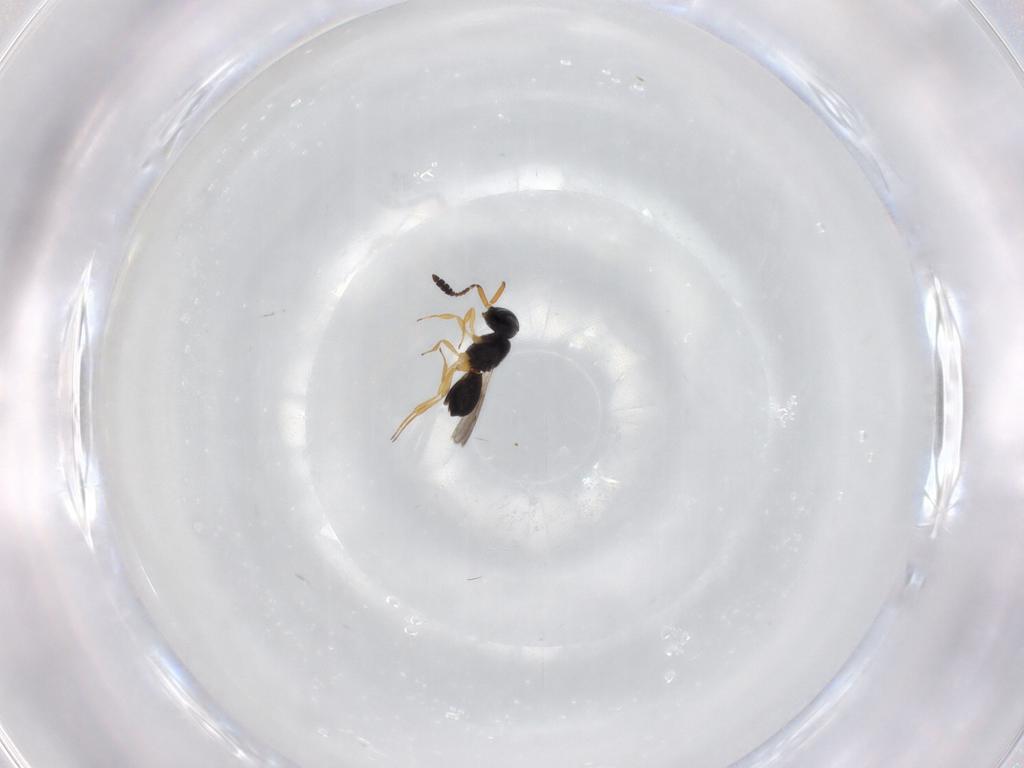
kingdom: Animalia
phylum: Arthropoda
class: Insecta
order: Hymenoptera
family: Scelionidae
